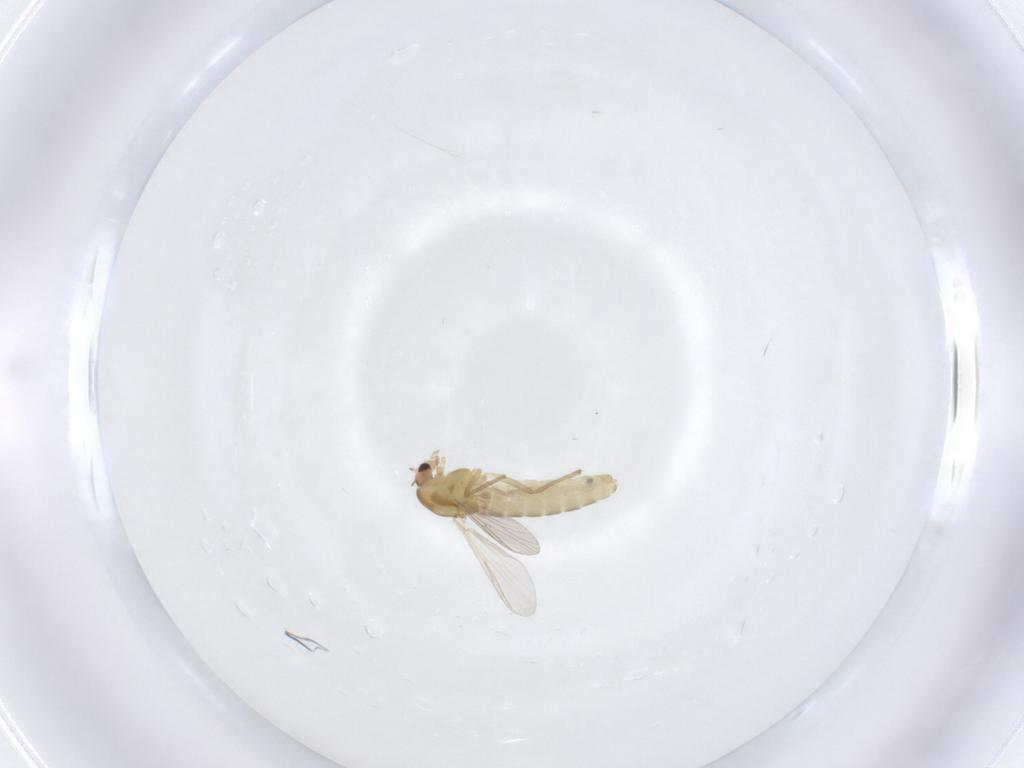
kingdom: Animalia
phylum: Arthropoda
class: Insecta
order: Diptera
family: Chironomidae
